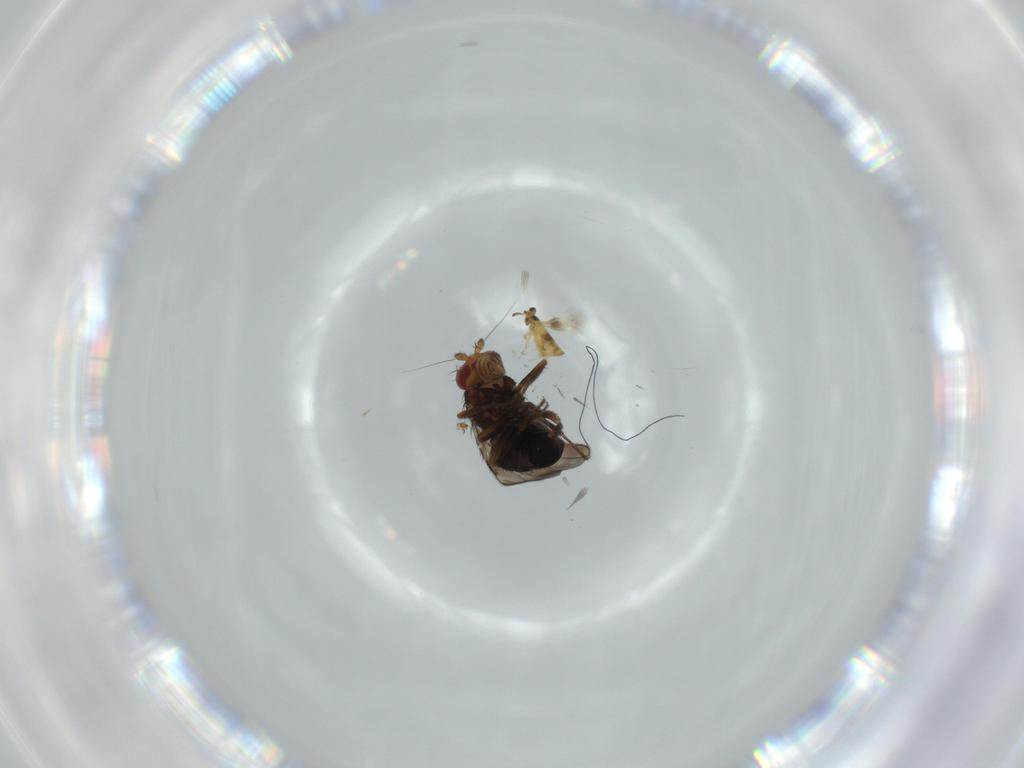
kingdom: Animalia
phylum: Arthropoda
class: Insecta
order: Diptera
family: Sphaeroceridae
